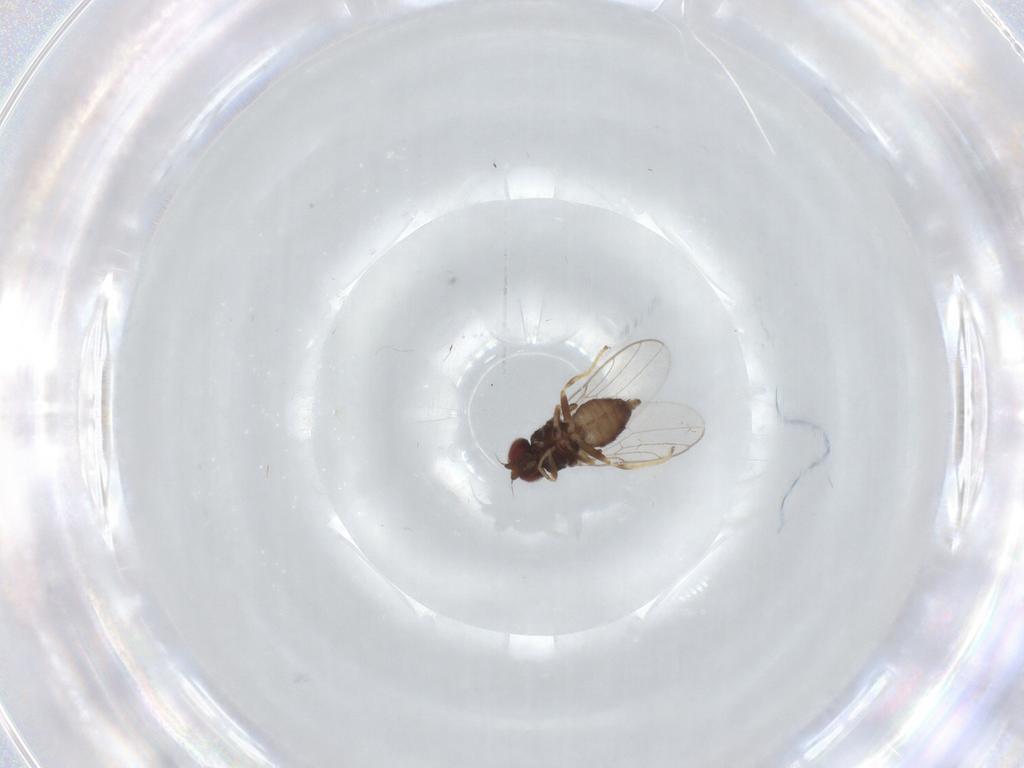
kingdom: Animalia
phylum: Arthropoda
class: Insecta
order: Diptera
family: Chloropidae
